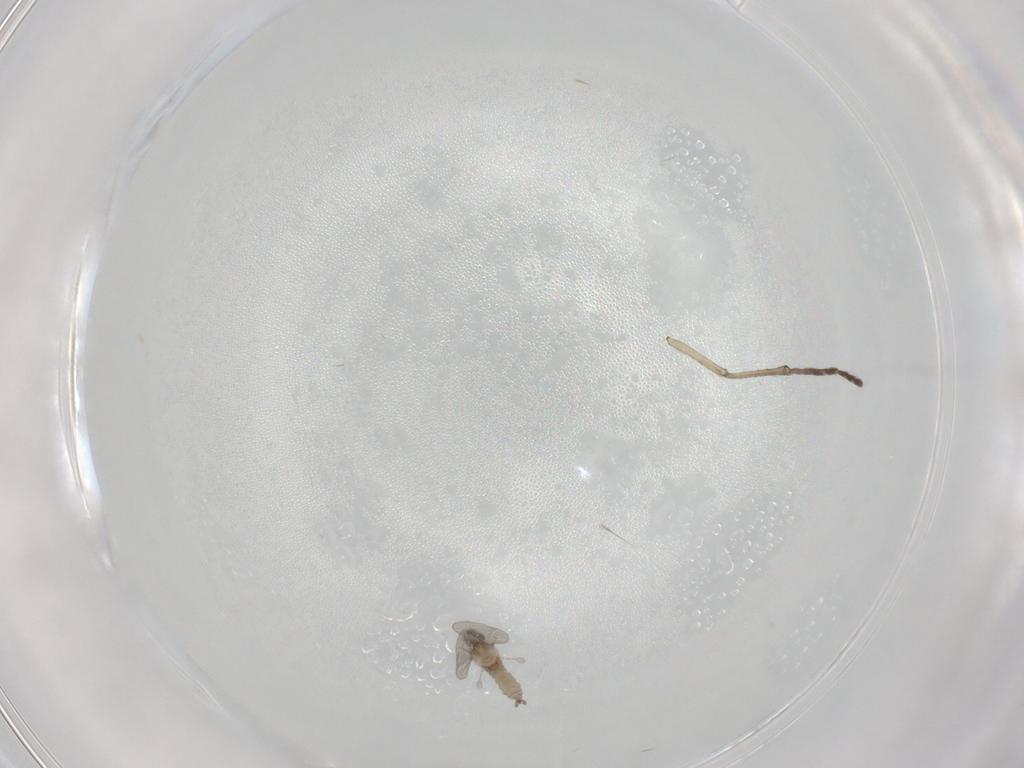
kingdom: Animalia
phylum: Arthropoda
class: Insecta
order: Diptera
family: Cecidomyiidae
